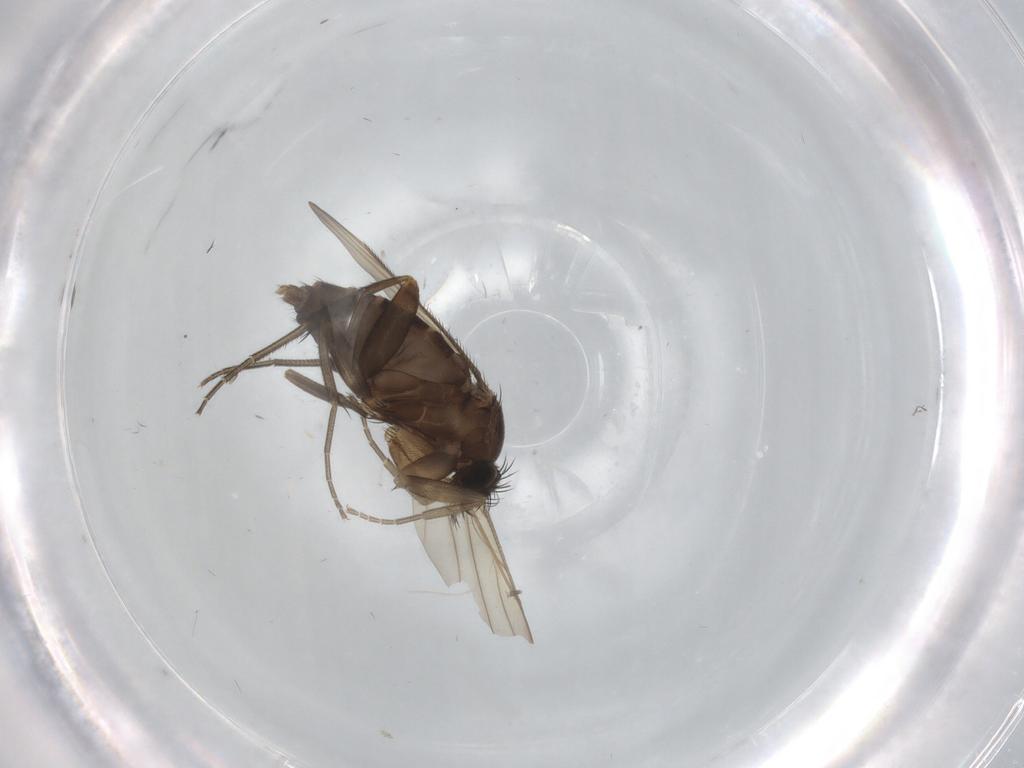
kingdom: Animalia
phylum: Arthropoda
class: Insecta
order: Diptera
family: Phoridae
